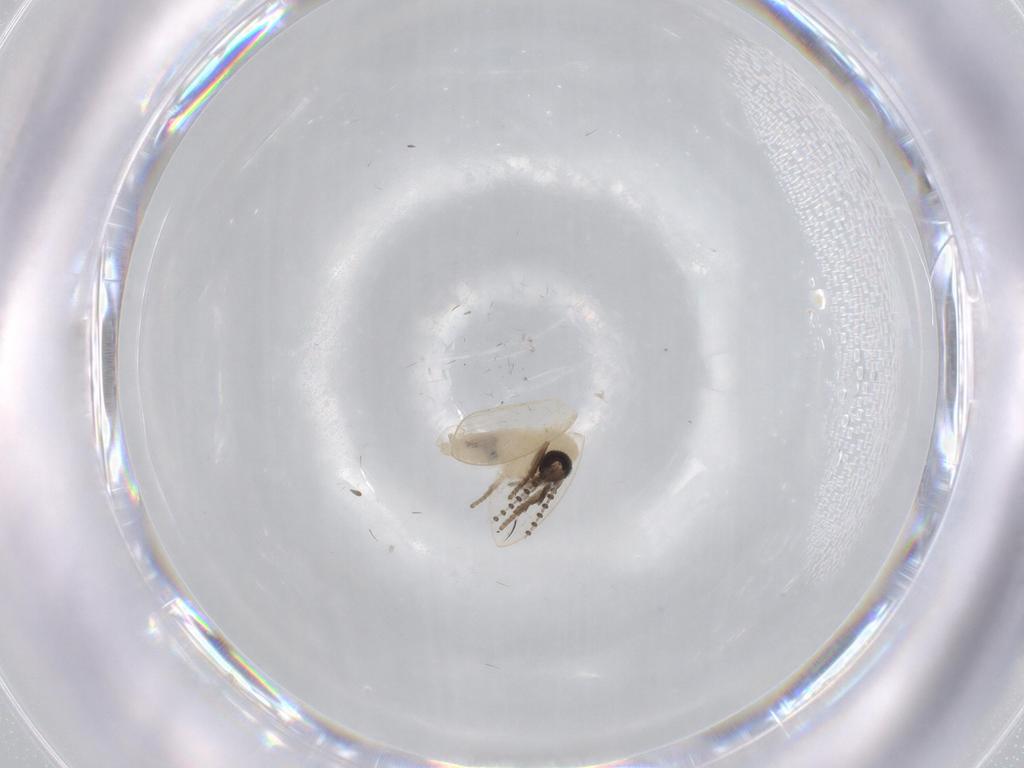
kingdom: Animalia
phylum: Arthropoda
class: Insecta
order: Diptera
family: Psychodidae
